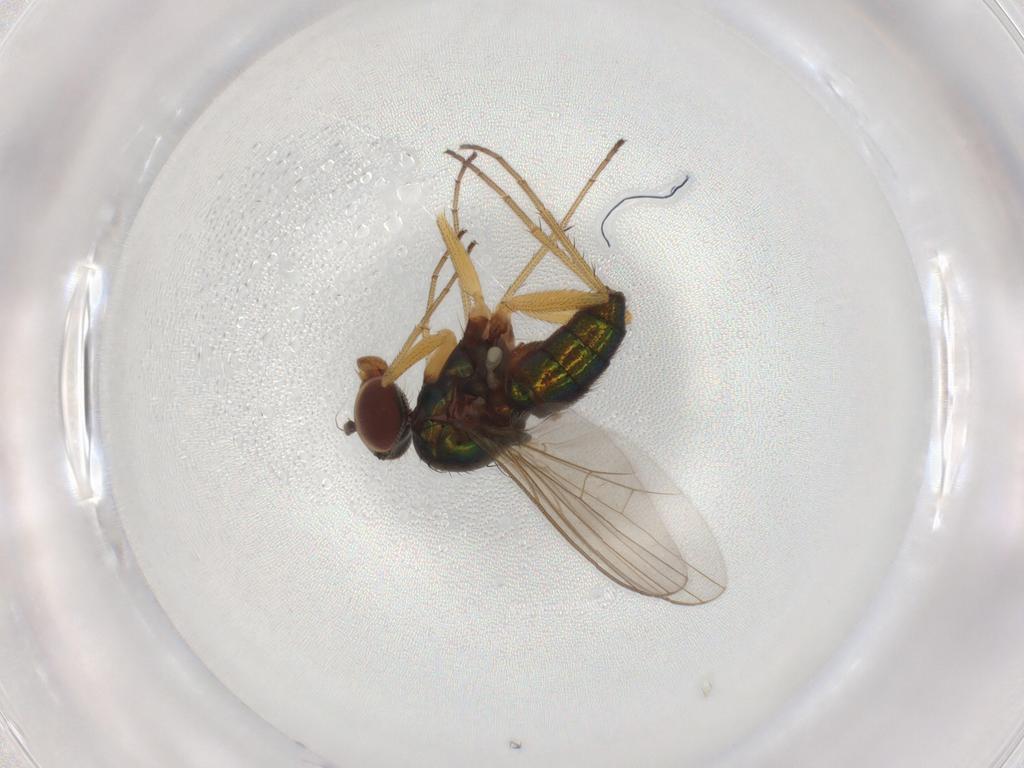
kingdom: Animalia
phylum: Arthropoda
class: Insecta
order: Diptera
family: Dolichopodidae
